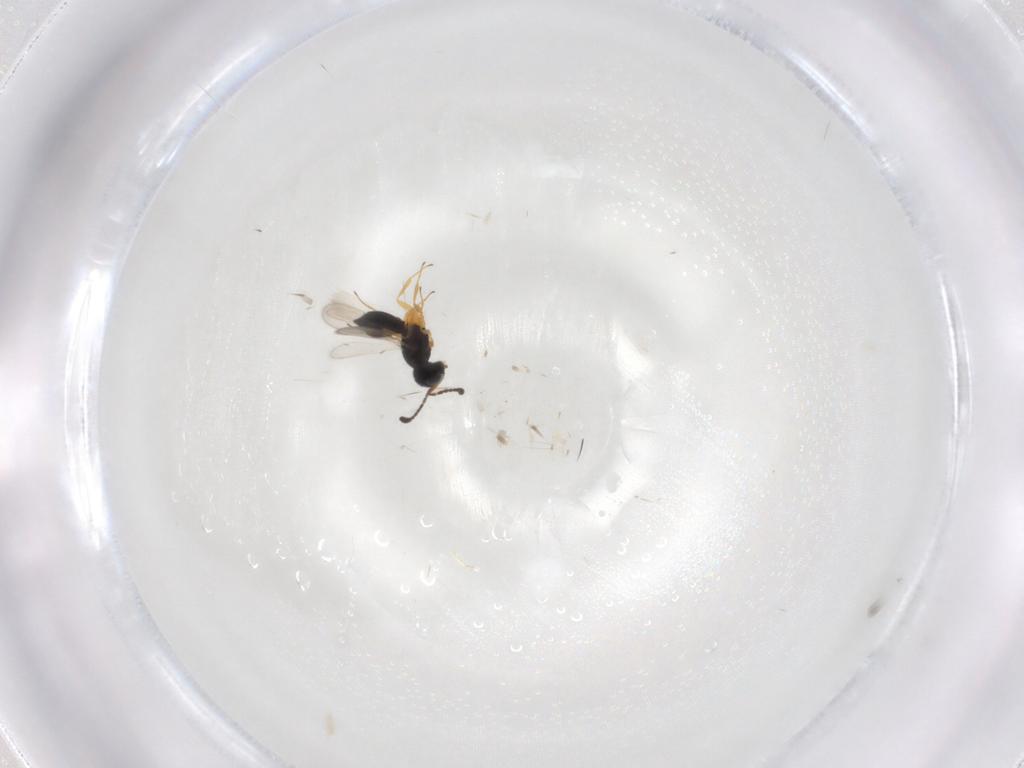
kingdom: Animalia
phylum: Arthropoda
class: Insecta
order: Hymenoptera
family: Scelionidae
